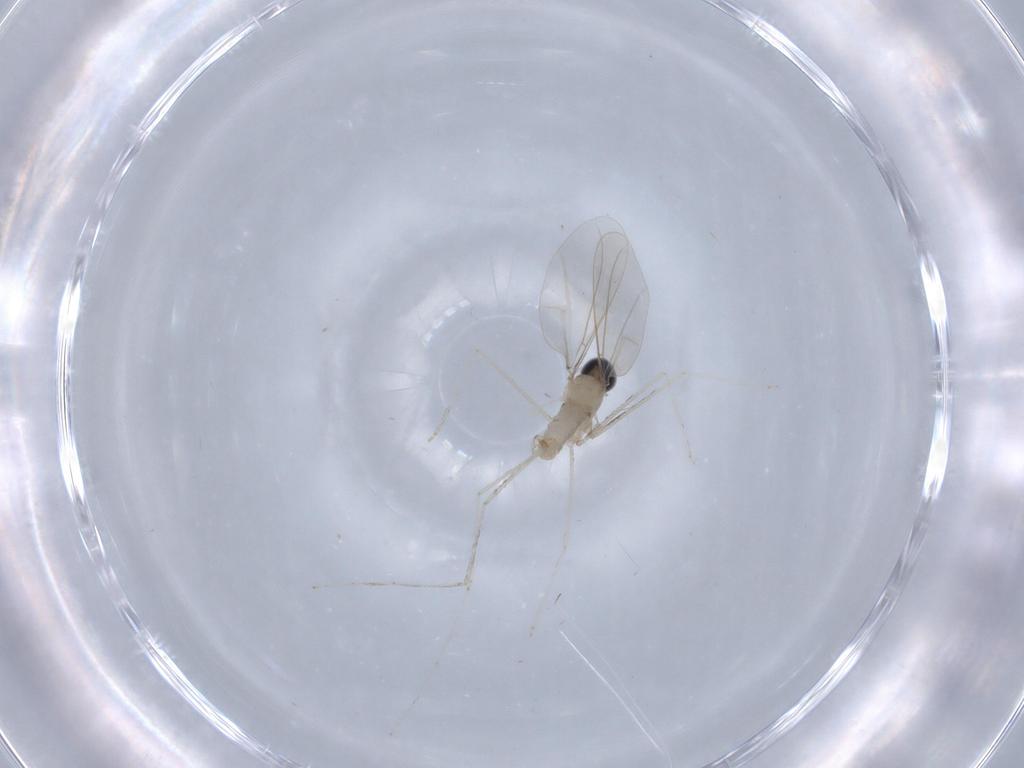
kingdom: Animalia
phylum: Arthropoda
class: Insecta
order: Diptera
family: Cecidomyiidae
